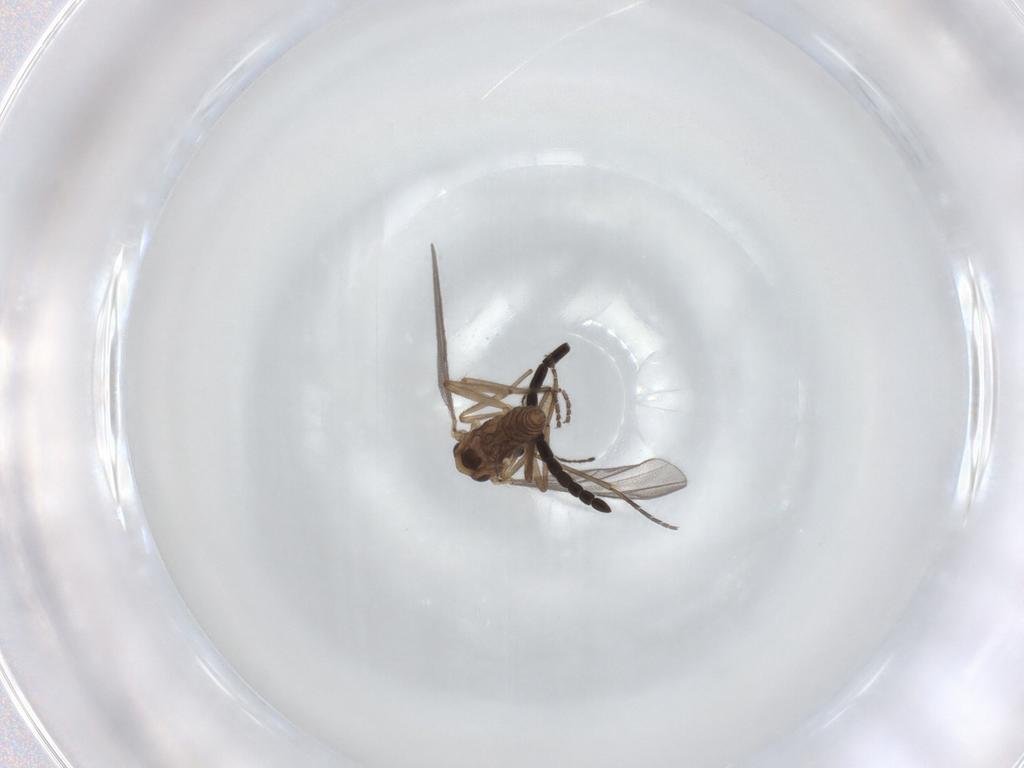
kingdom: Animalia
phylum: Arthropoda
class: Insecta
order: Diptera
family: Ceratopogonidae
